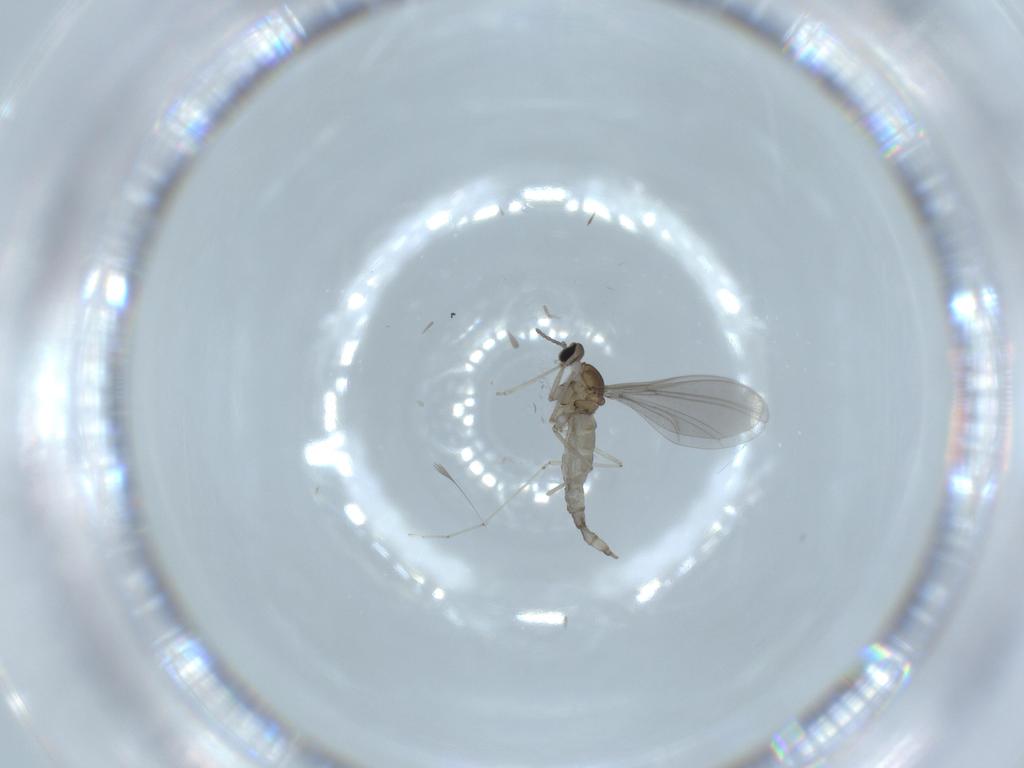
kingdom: Animalia
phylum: Arthropoda
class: Insecta
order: Diptera
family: Cecidomyiidae
